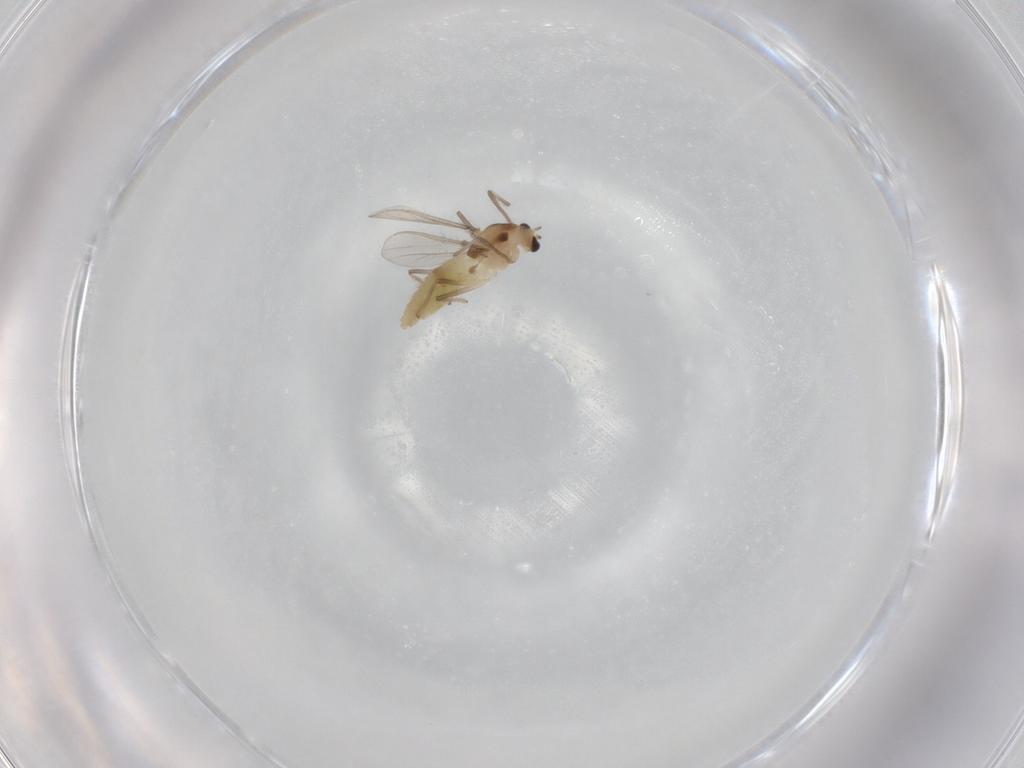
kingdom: Animalia
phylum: Arthropoda
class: Insecta
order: Diptera
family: Chironomidae
